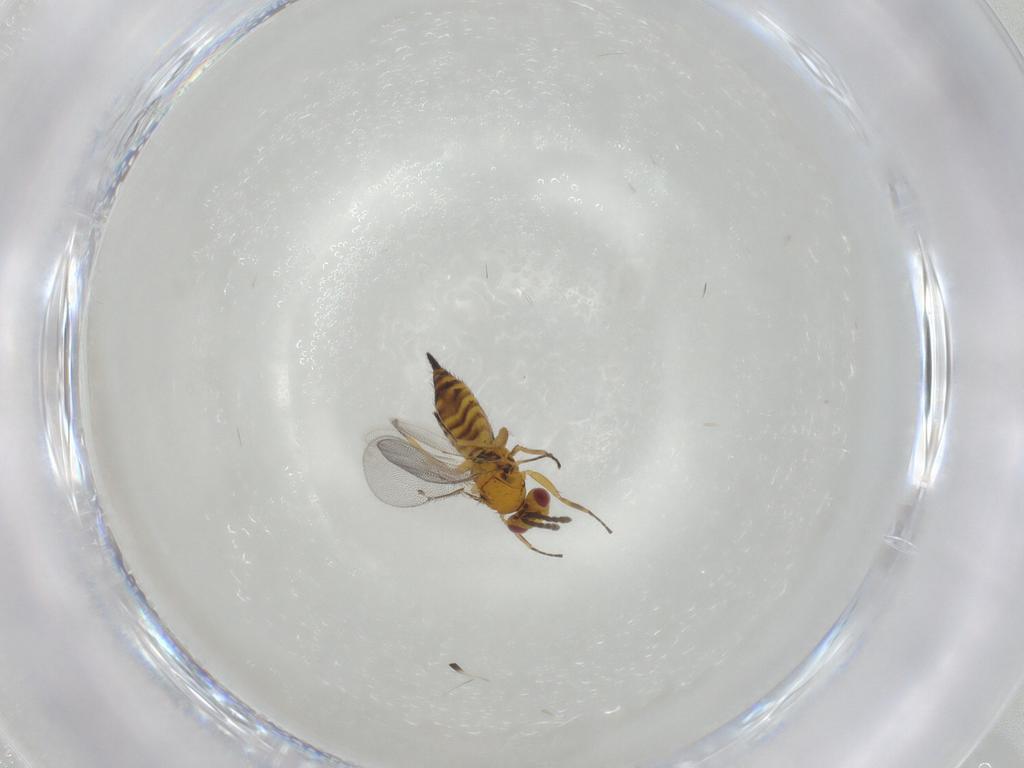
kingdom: Animalia
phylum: Arthropoda
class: Insecta
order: Hymenoptera
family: Eulophidae
